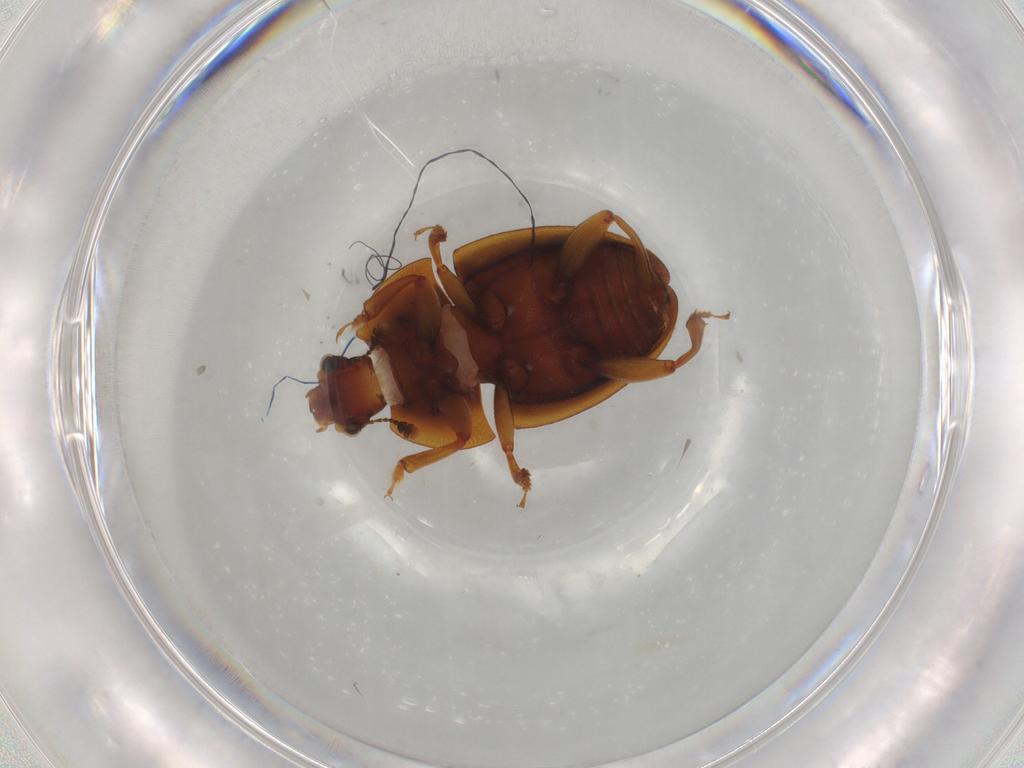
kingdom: Animalia
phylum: Arthropoda
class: Insecta
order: Coleoptera
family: Nitidulidae
